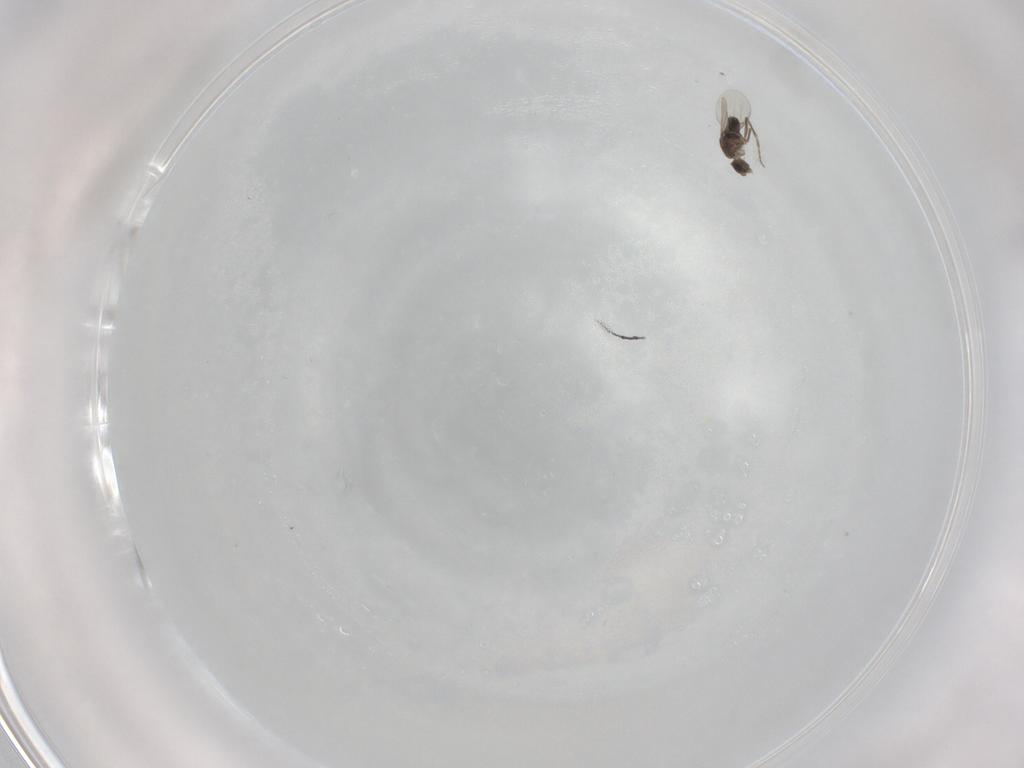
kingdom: Animalia
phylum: Arthropoda
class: Insecta
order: Diptera
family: Phoridae
